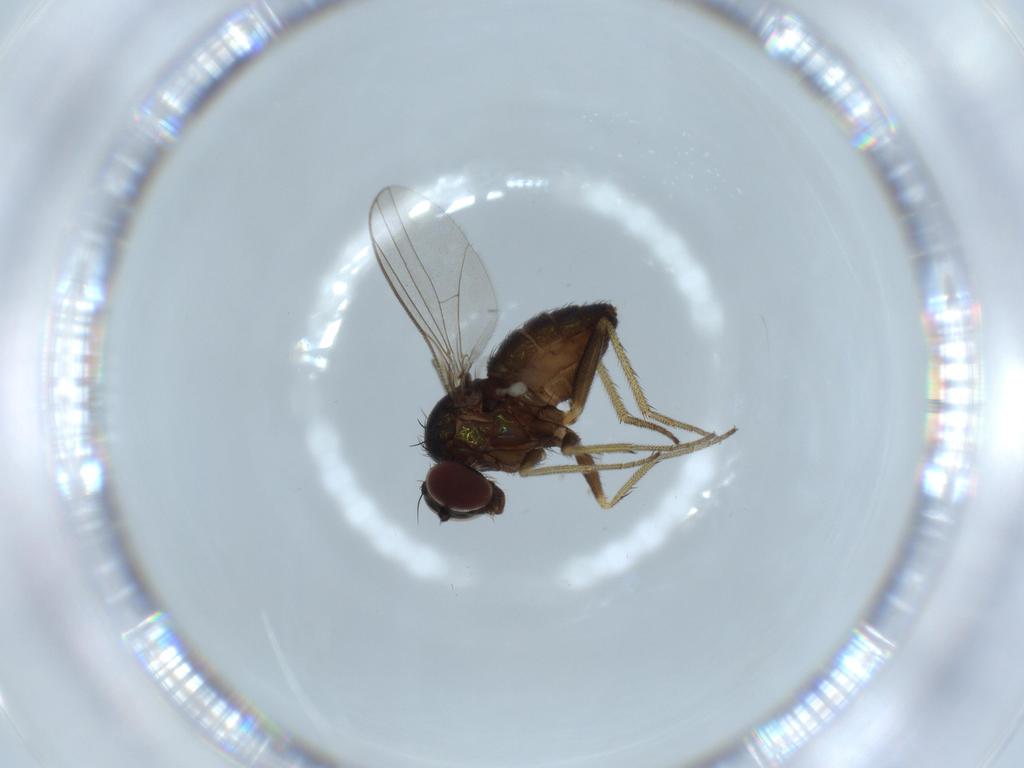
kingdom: Animalia
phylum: Arthropoda
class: Insecta
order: Diptera
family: Dolichopodidae
